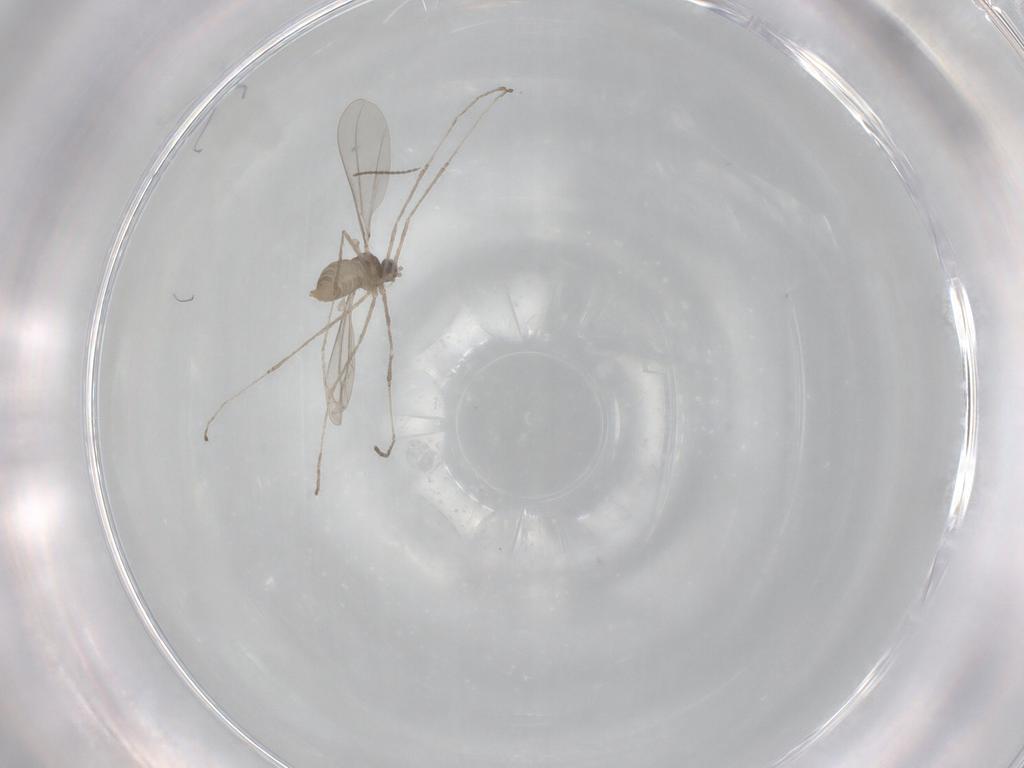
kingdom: Animalia
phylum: Arthropoda
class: Insecta
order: Diptera
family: Cecidomyiidae
